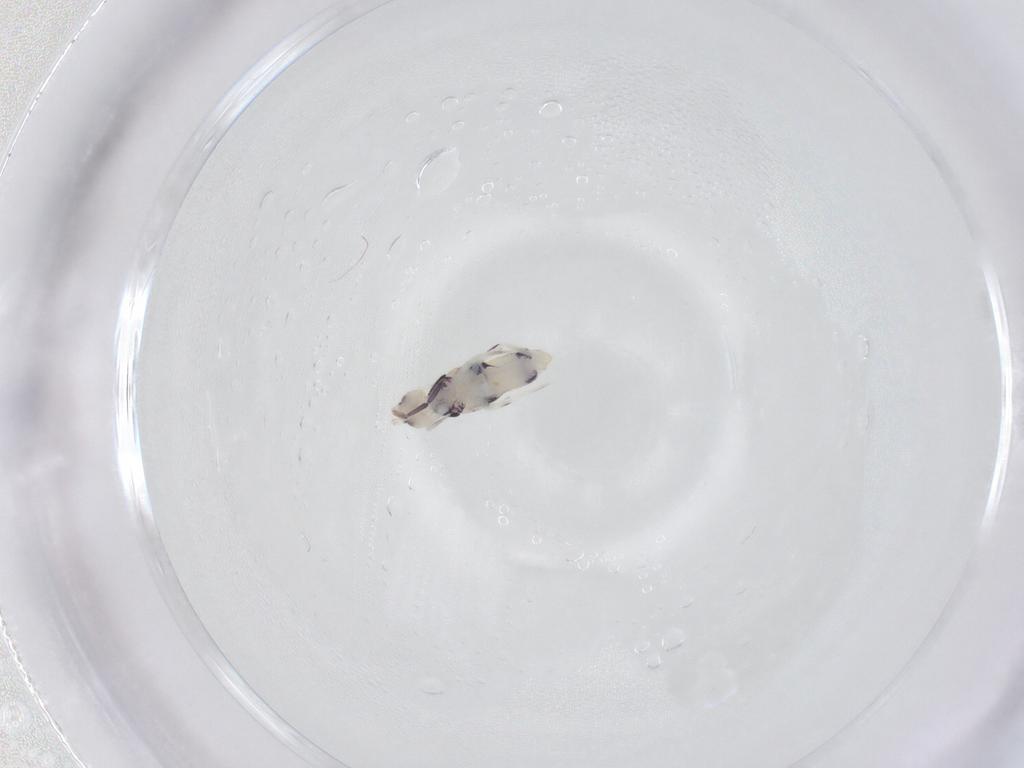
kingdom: Animalia
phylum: Arthropoda
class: Collembola
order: Entomobryomorpha
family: Entomobryidae
